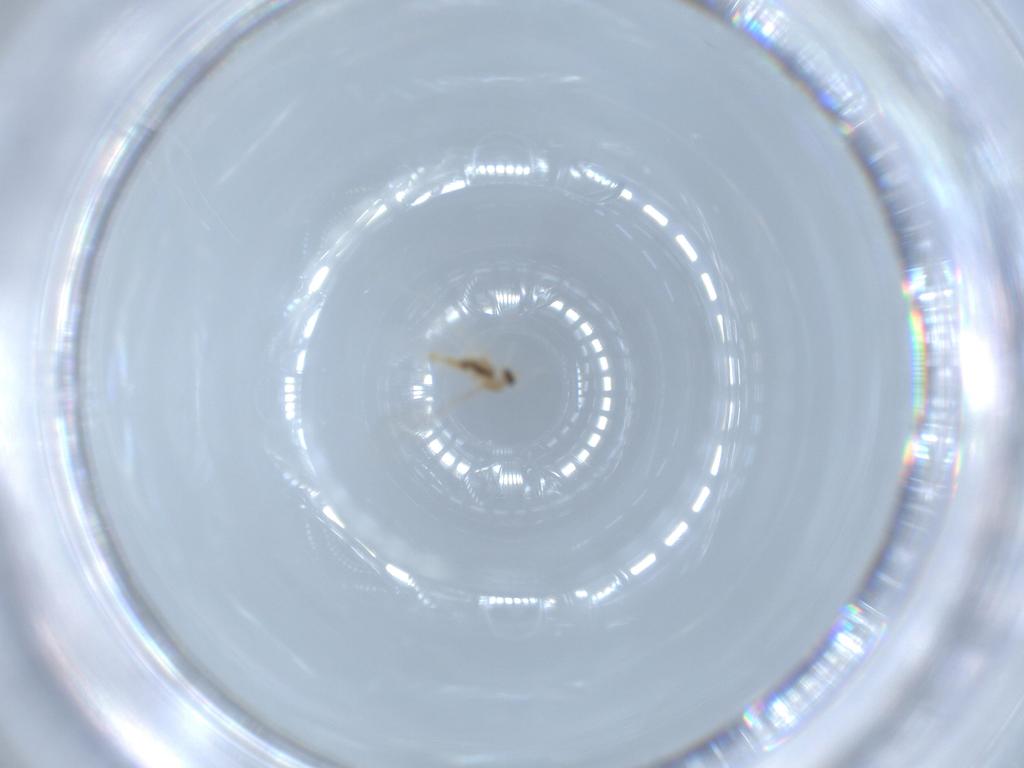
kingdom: Animalia
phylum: Arthropoda
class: Insecta
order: Diptera
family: Cecidomyiidae
